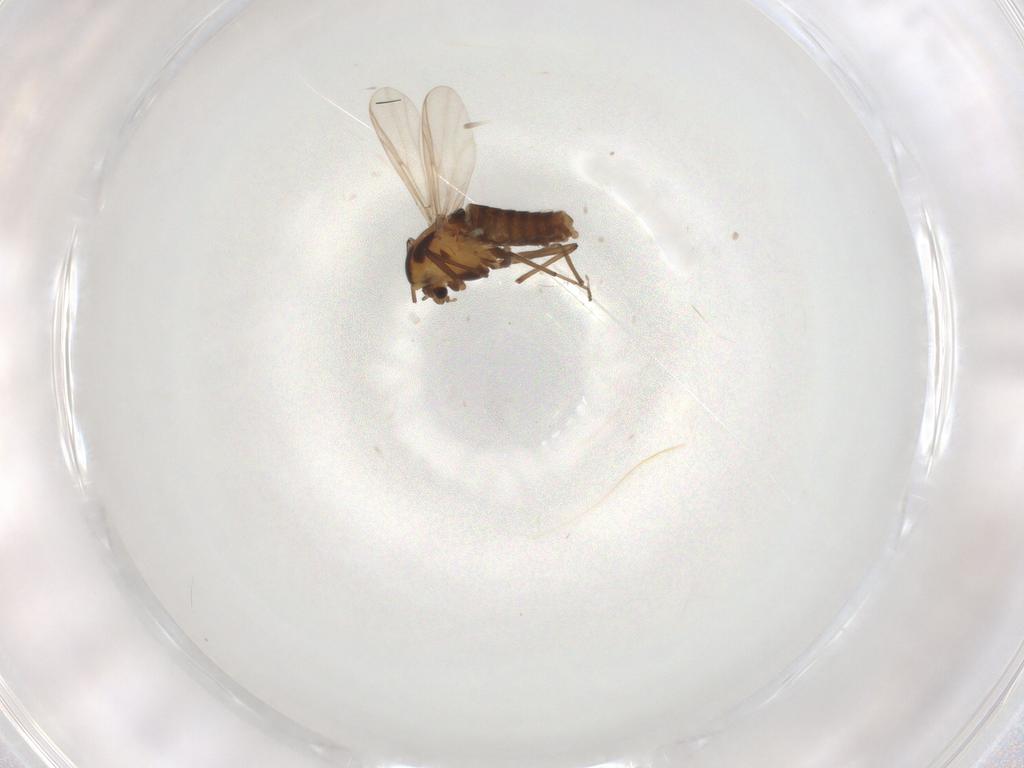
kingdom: Animalia
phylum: Arthropoda
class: Insecta
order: Diptera
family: Chironomidae
